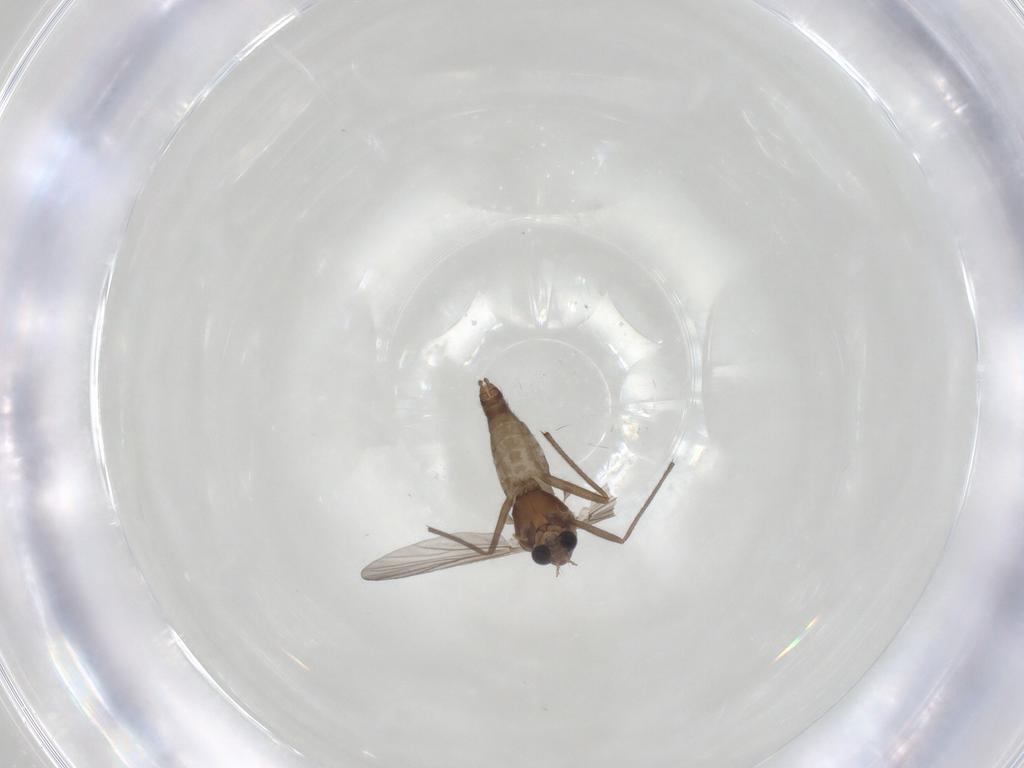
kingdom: Animalia
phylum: Arthropoda
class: Insecta
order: Diptera
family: Chironomidae
